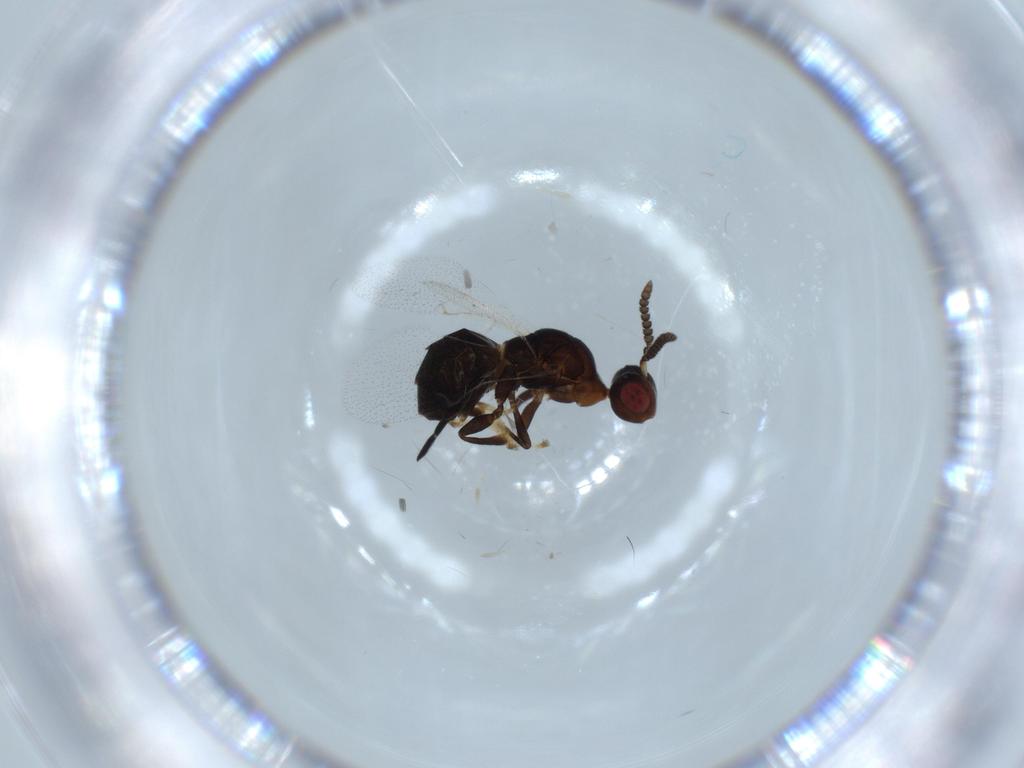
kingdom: Animalia
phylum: Arthropoda
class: Insecta
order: Hymenoptera
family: Agaonidae
